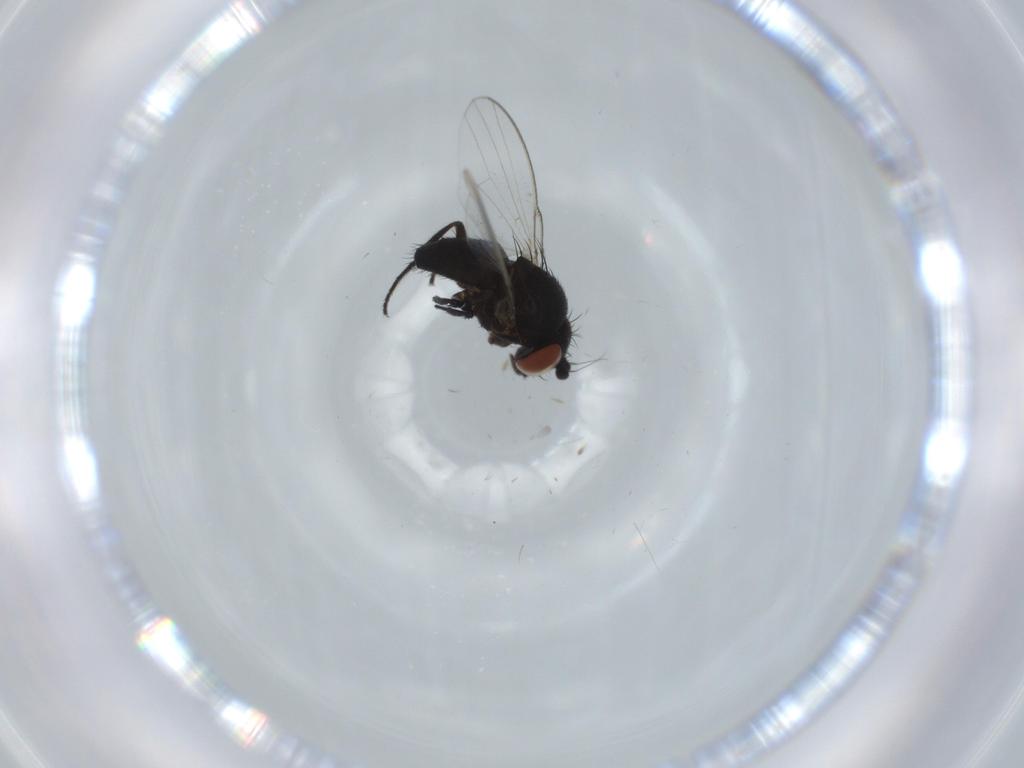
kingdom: Animalia
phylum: Arthropoda
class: Insecta
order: Diptera
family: Milichiidae
